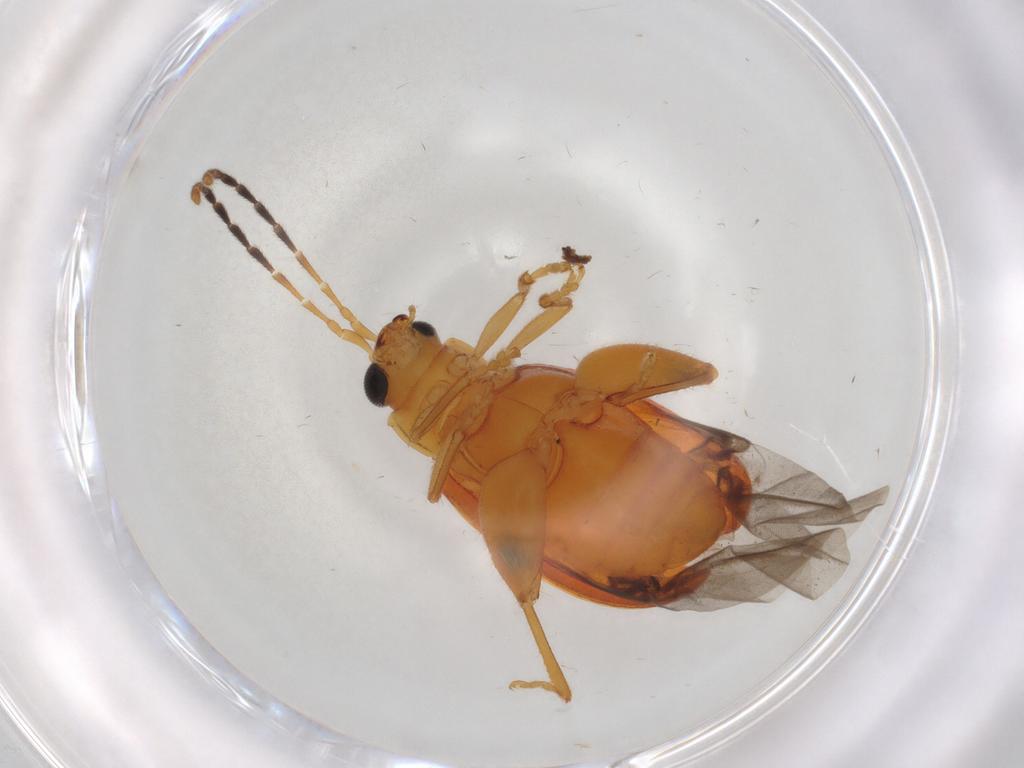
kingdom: Animalia
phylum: Arthropoda
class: Insecta
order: Coleoptera
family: Chrysomelidae
